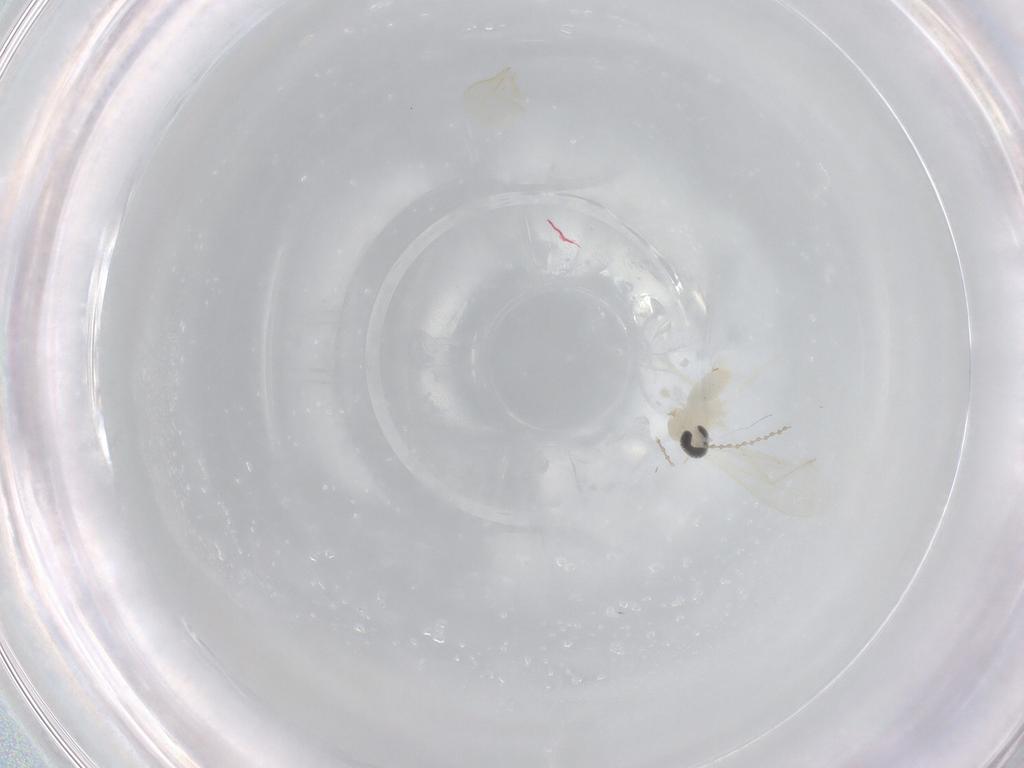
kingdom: Animalia
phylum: Arthropoda
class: Insecta
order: Diptera
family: Cecidomyiidae
